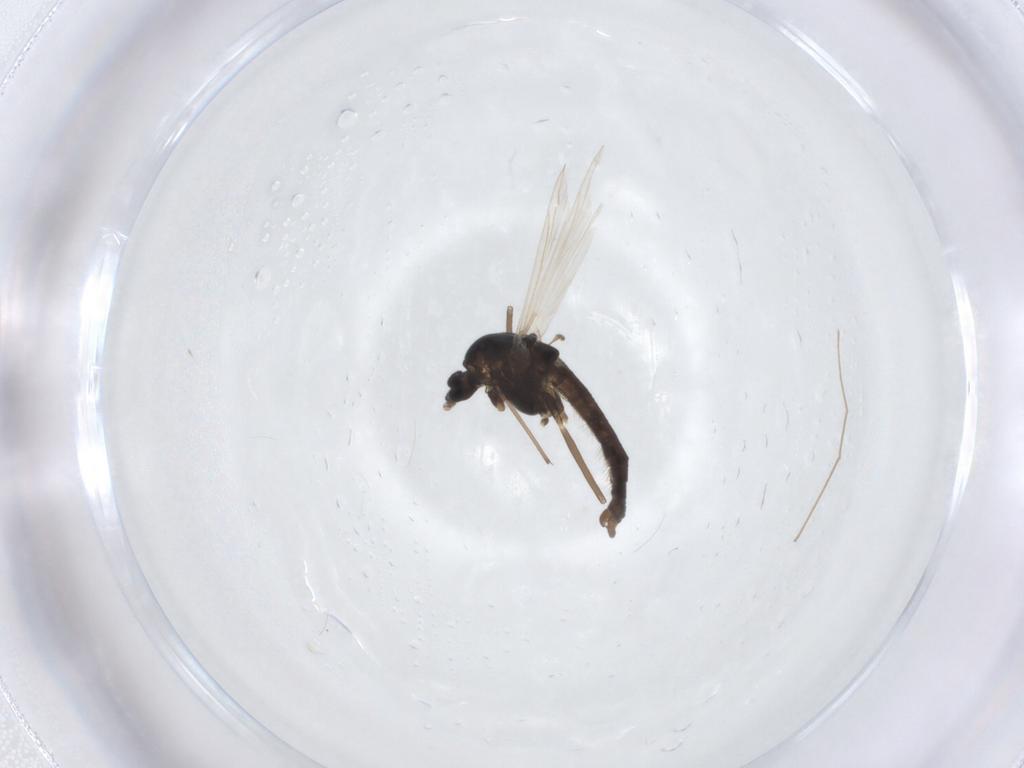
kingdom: Animalia
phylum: Arthropoda
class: Insecta
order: Diptera
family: Chironomidae
